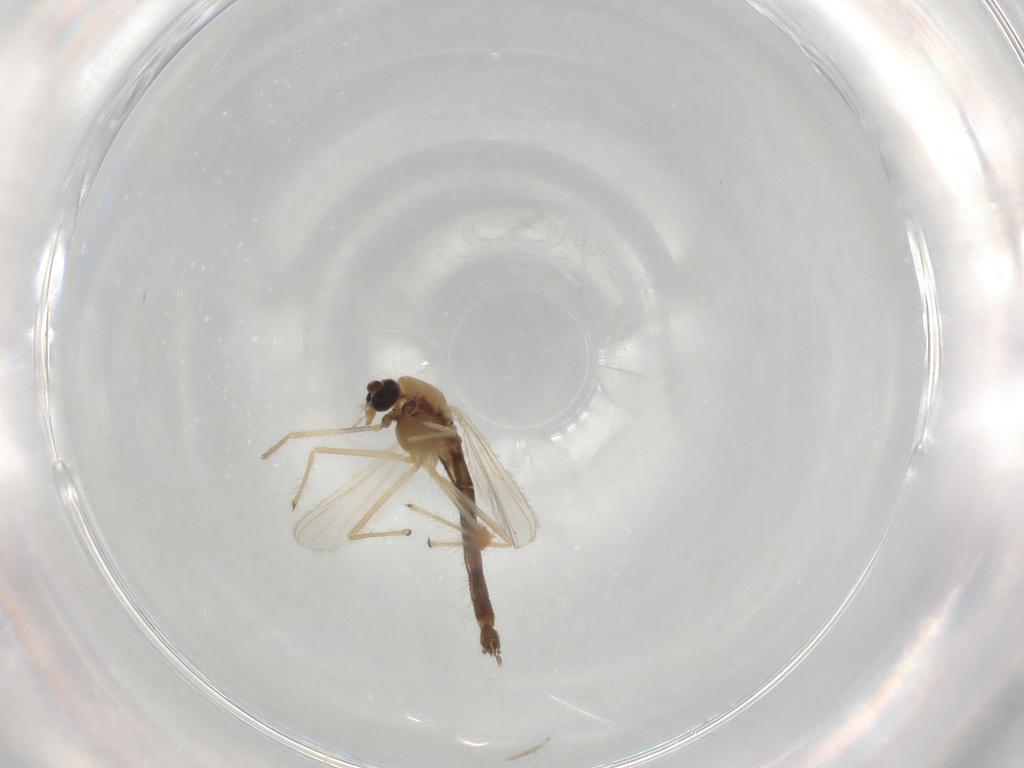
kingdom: Animalia
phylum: Arthropoda
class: Insecta
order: Diptera
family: Chironomidae
